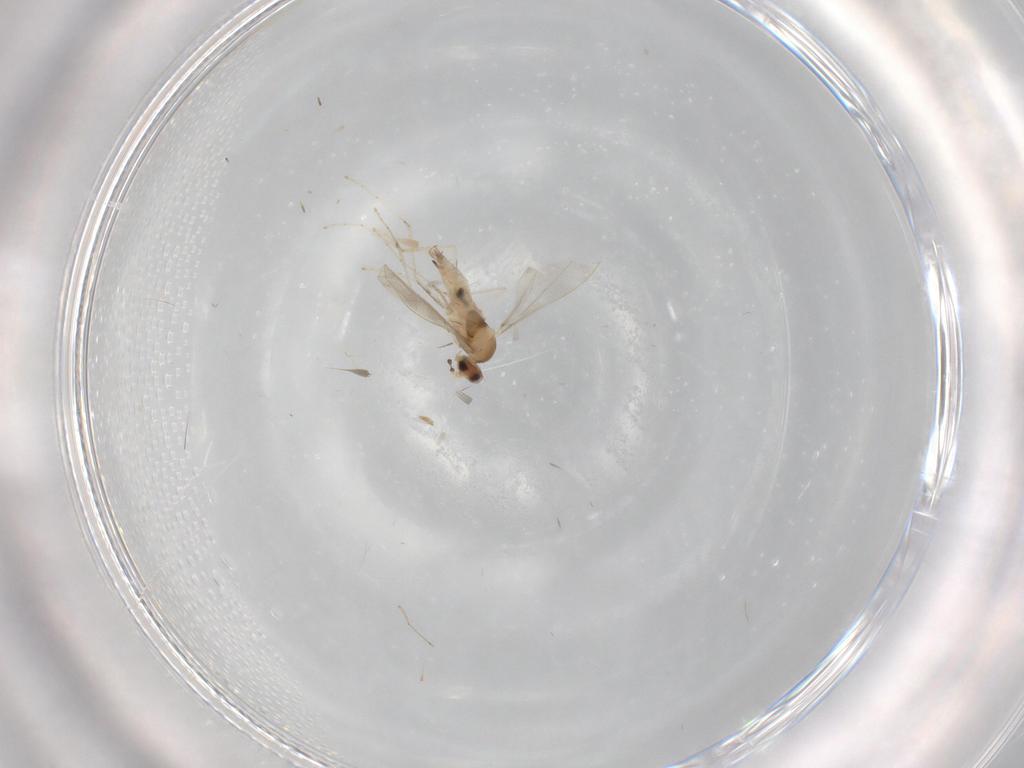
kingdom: Animalia
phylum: Arthropoda
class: Insecta
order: Diptera
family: Cecidomyiidae
